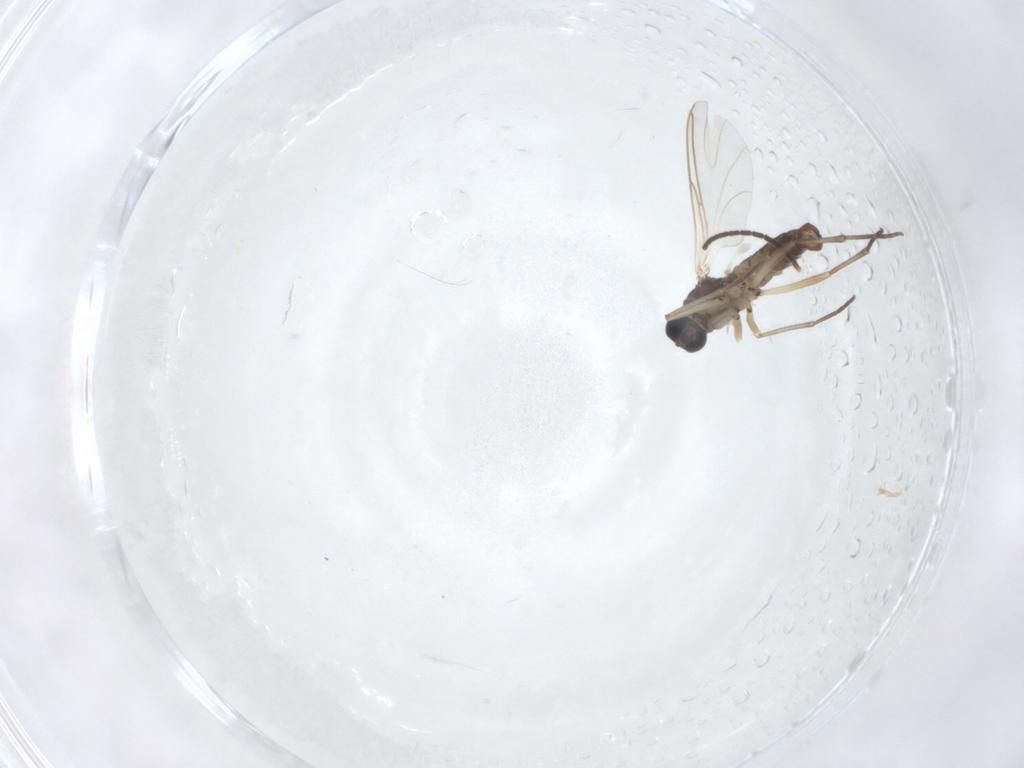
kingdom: Animalia
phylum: Arthropoda
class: Insecta
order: Diptera
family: Sciaridae
